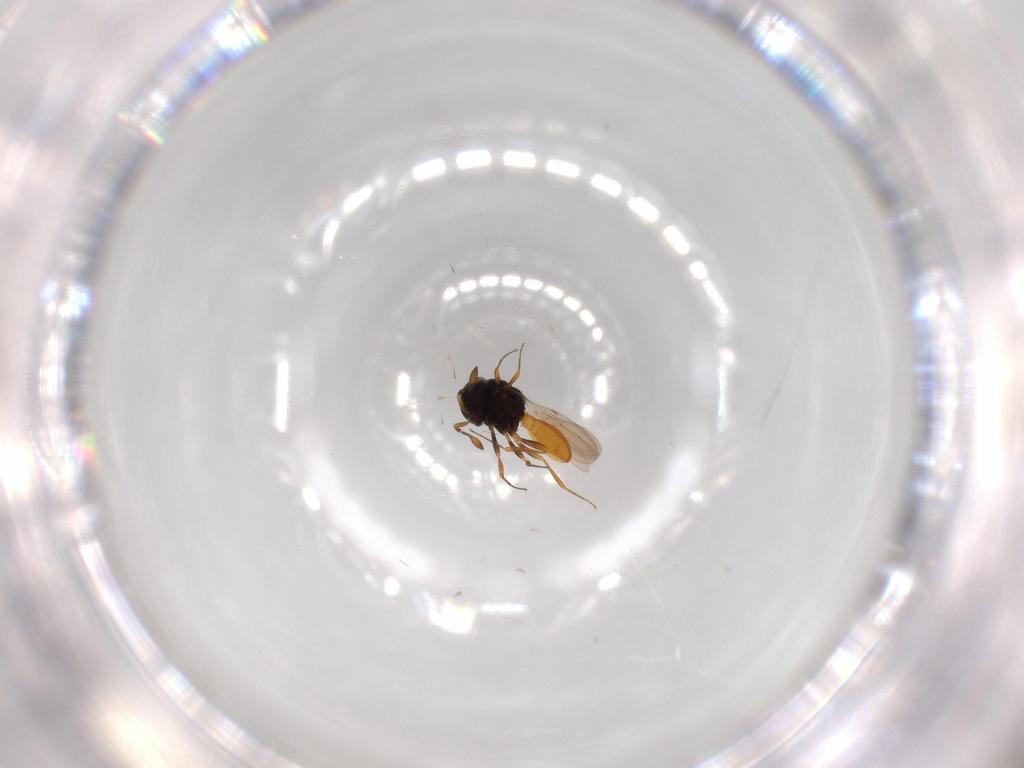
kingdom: Animalia
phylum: Arthropoda
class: Insecta
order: Hymenoptera
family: Scelionidae
